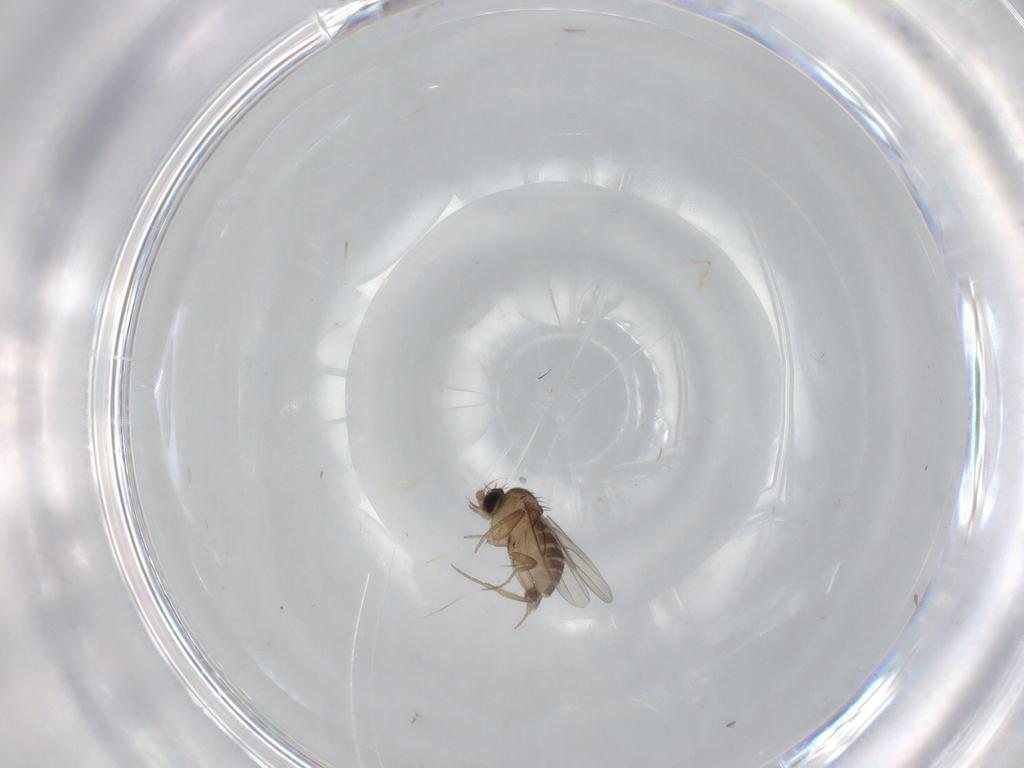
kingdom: Animalia
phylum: Arthropoda
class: Insecta
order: Diptera
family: Phoridae
